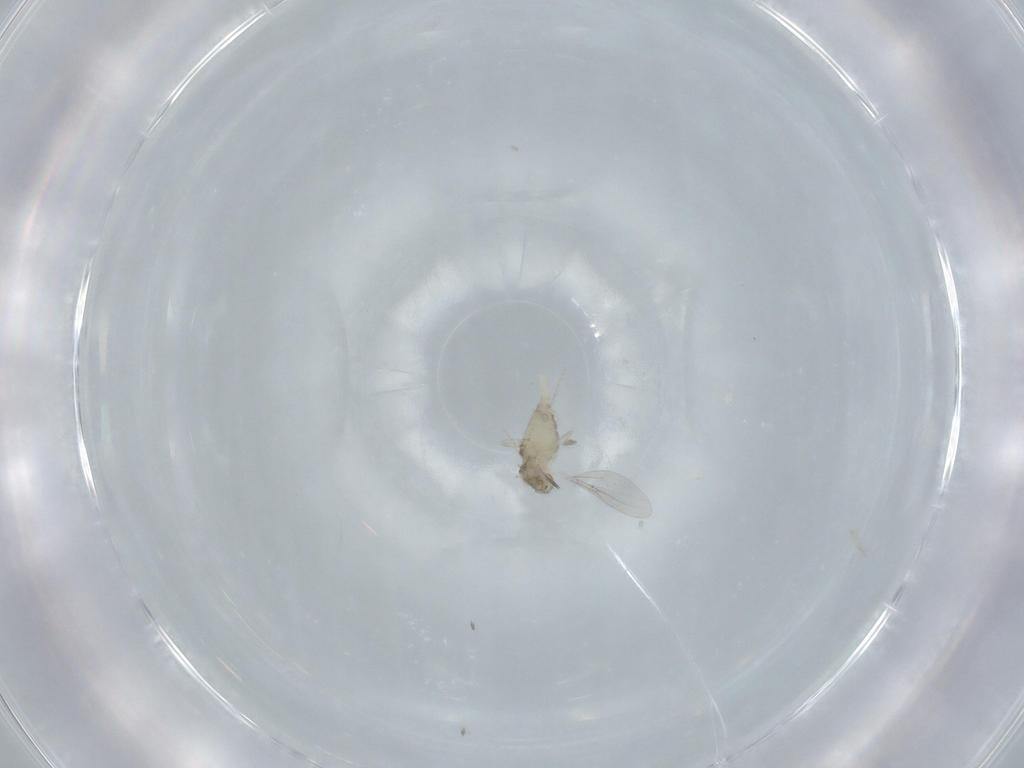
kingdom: Animalia
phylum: Arthropoda
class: Insecta
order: Diptera
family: Cecidomyiidae
